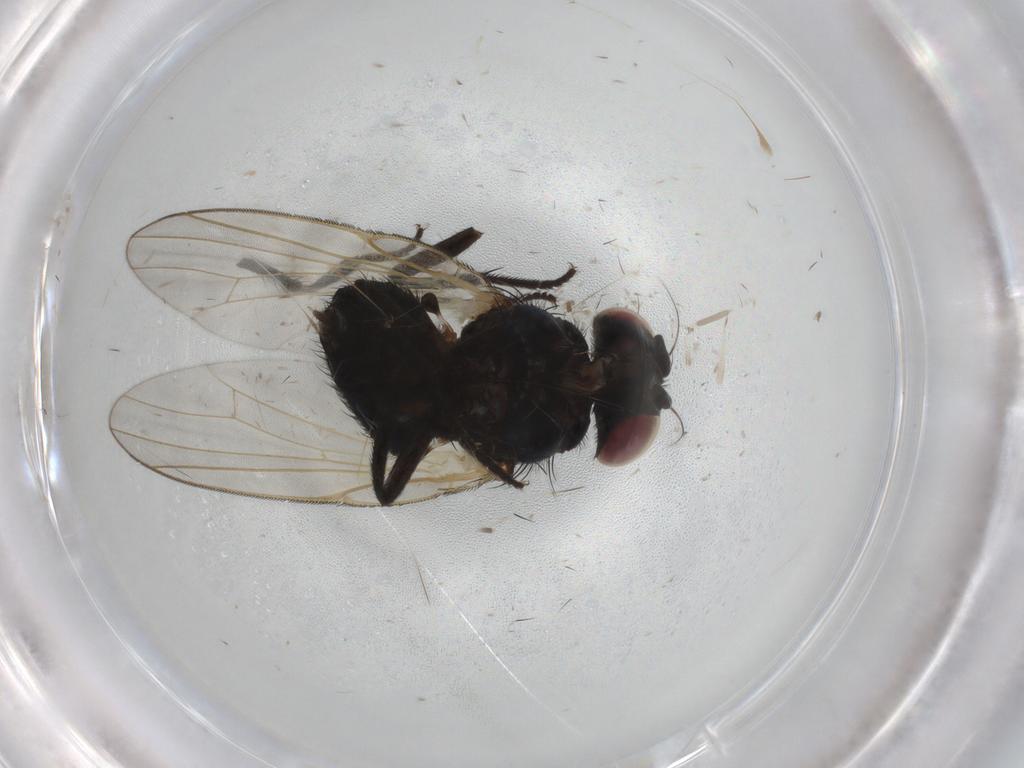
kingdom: Animalia
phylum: Arthropoda
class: Insecta
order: Diptera
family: Lonchaeidae
